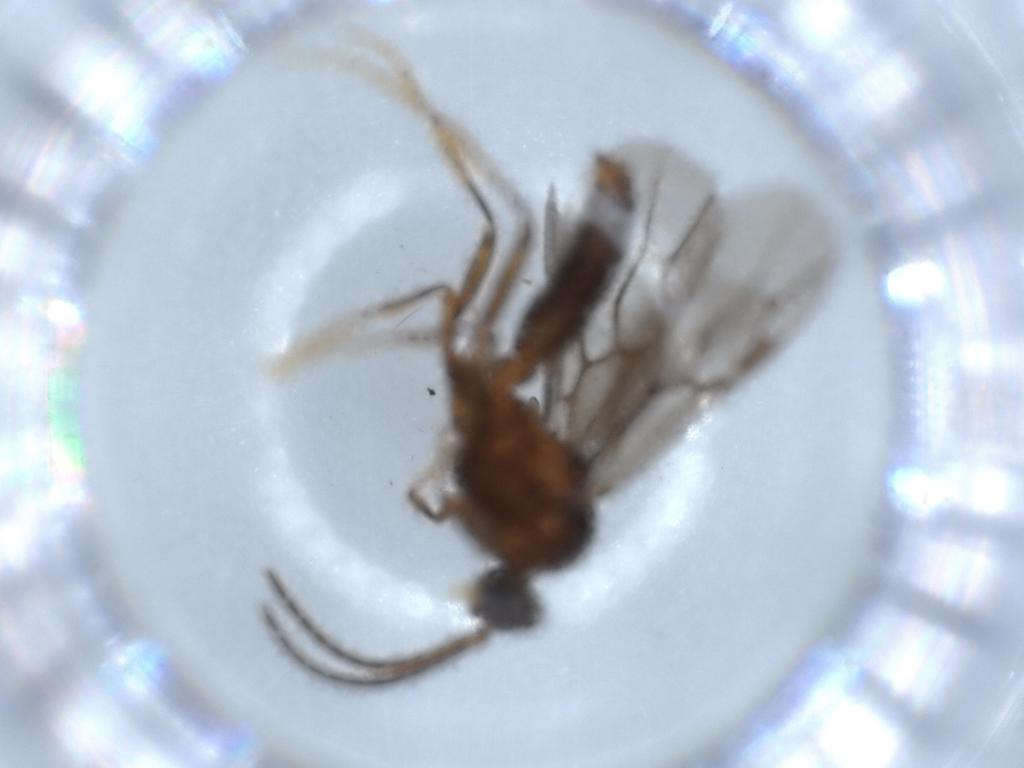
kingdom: Animalia
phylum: Arthropoda
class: Insecta
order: Hymenoptera
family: Formicidae
